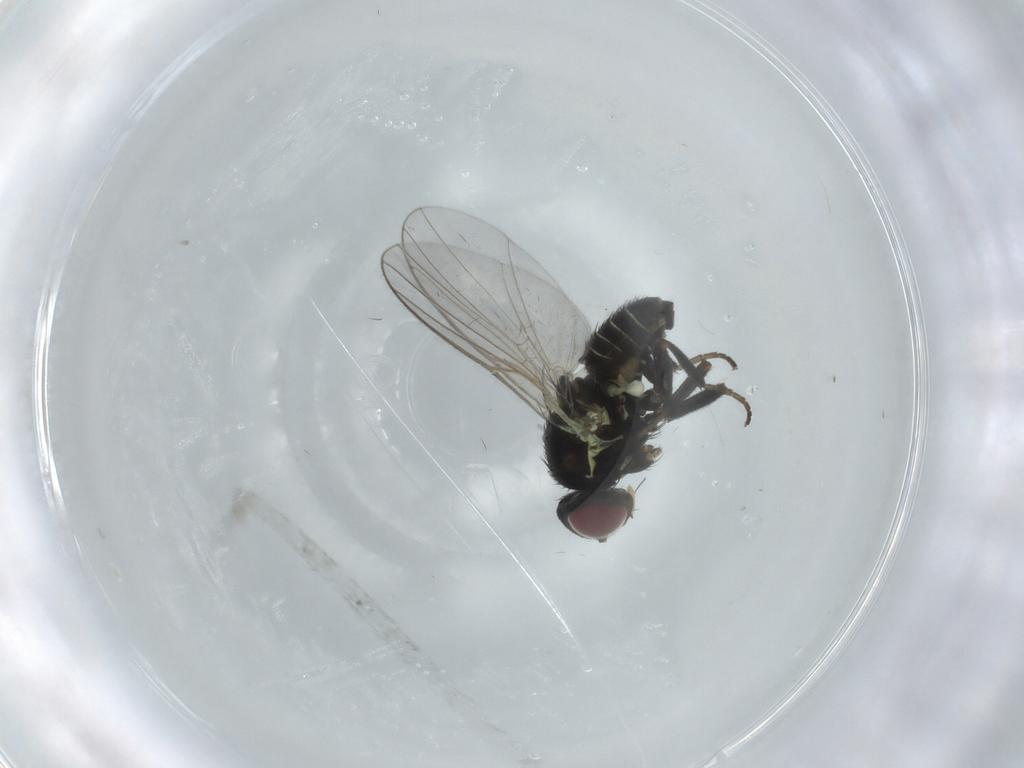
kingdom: Animalia
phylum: Arthropoda
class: Insecta
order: Diptera
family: Agromyzidae
